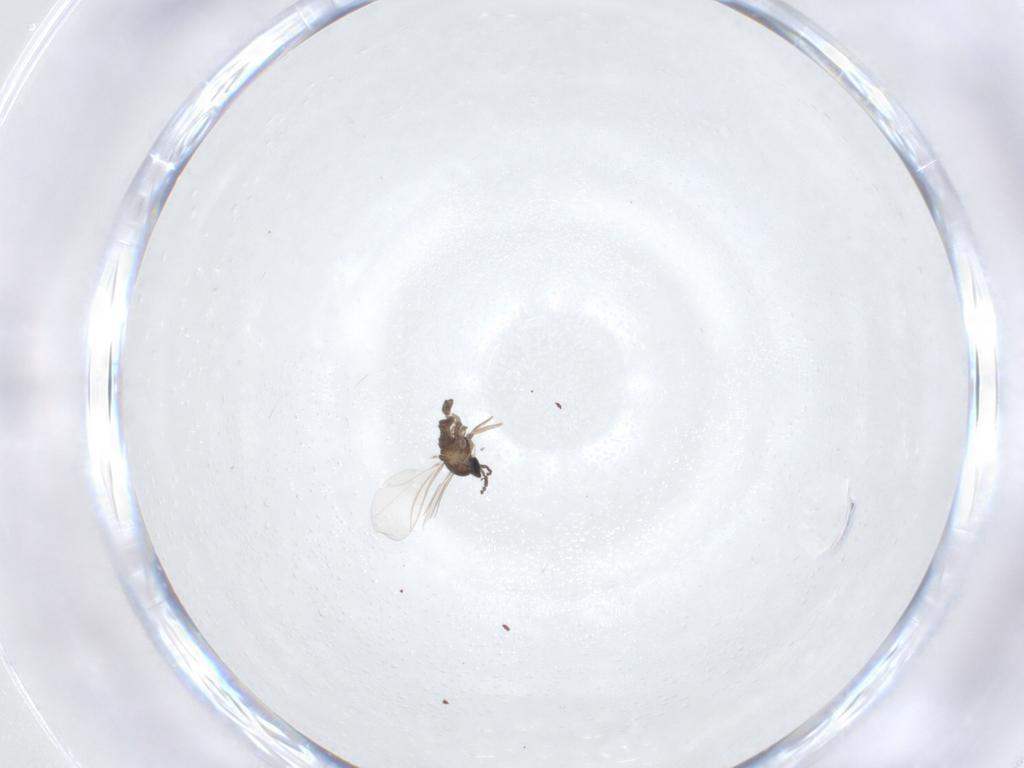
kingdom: Animalia
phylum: Arthropoda
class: Insecta
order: Diptera
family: Cecidomyiidae
